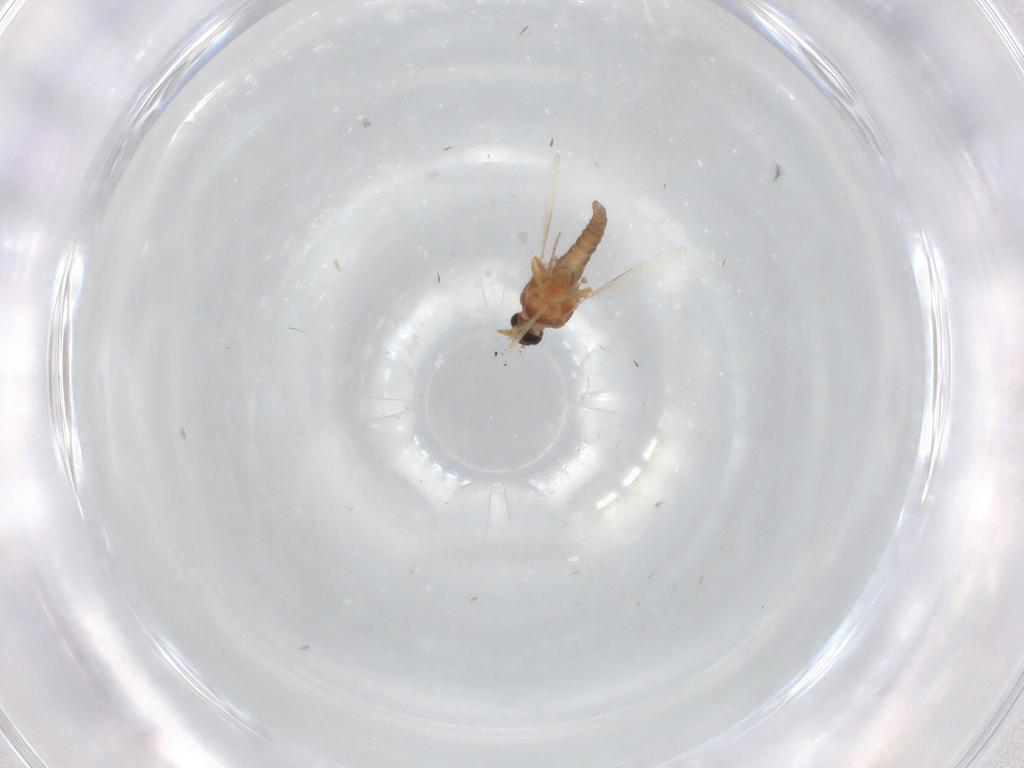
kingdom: Animalia
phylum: Arthropoda
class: Insecta
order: Diptera
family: Ceratopogonidae
